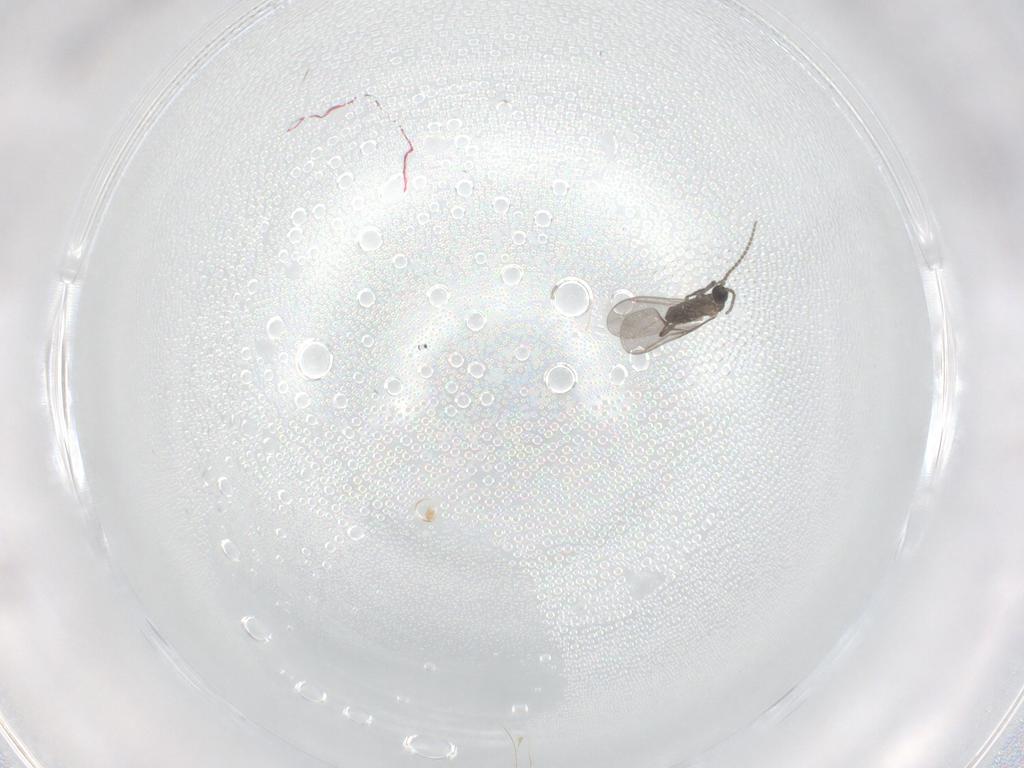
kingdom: Animalia
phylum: Arthropoda
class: Insecta
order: Diptera
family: Sciaridae
